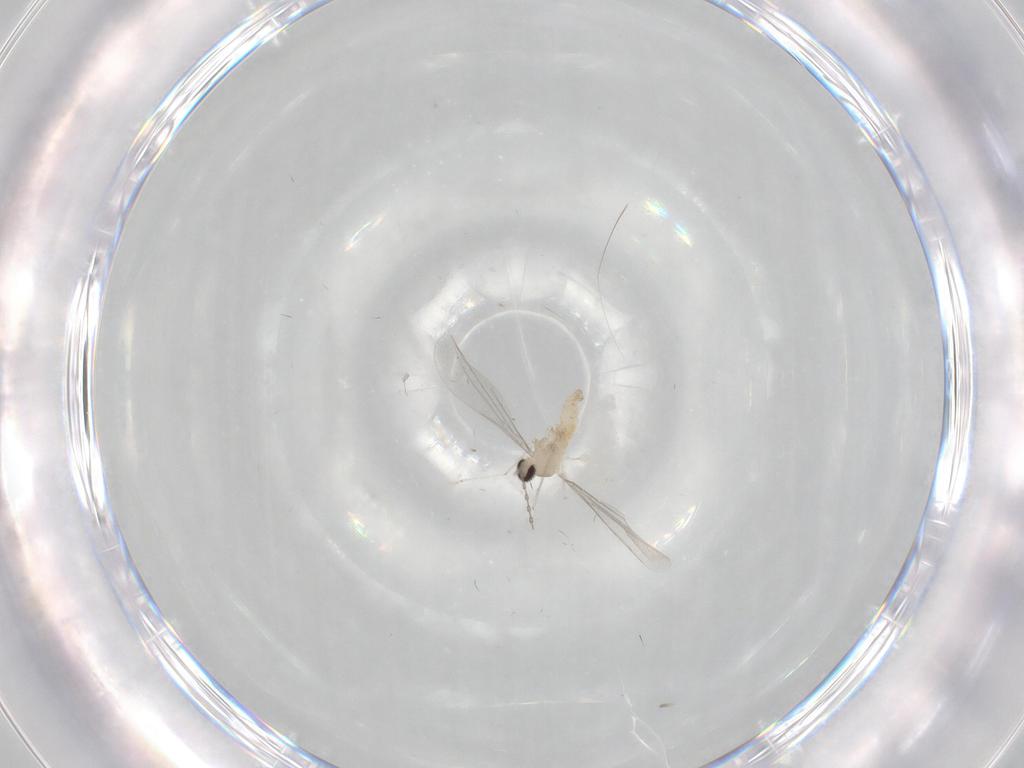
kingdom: Animalia
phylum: Arthropoda
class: Insecta
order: Diptera
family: Cecidomyiidae
